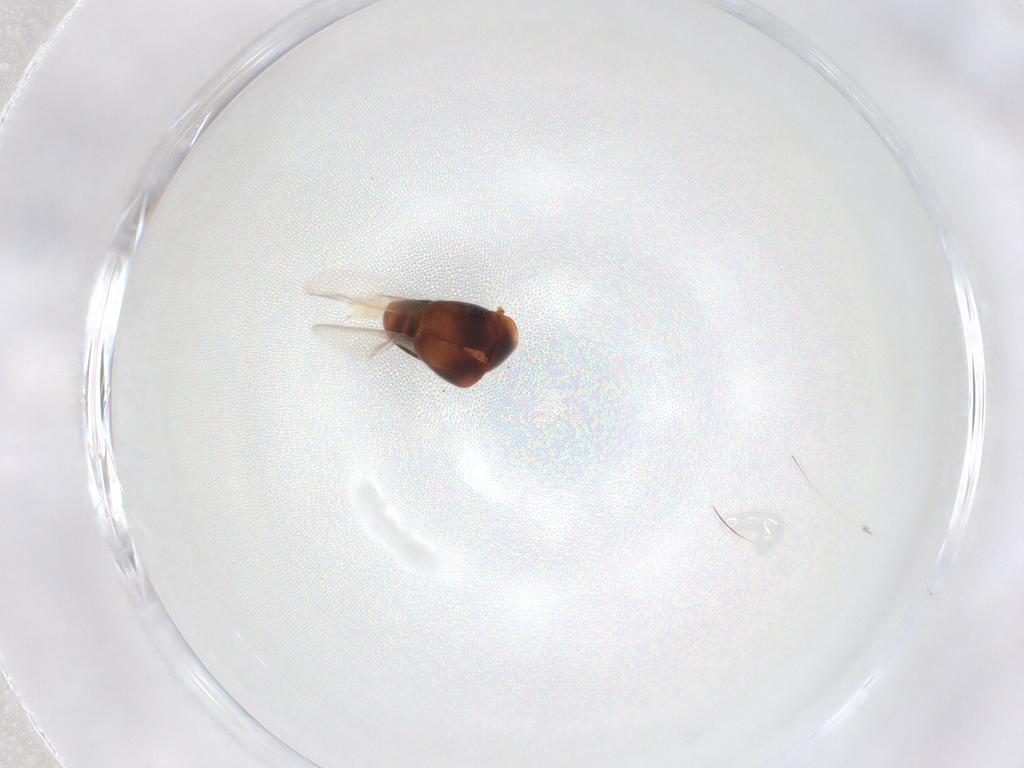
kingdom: Animalia
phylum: Arthropoda
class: Insecta
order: Coleoptera
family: Corylophidae
